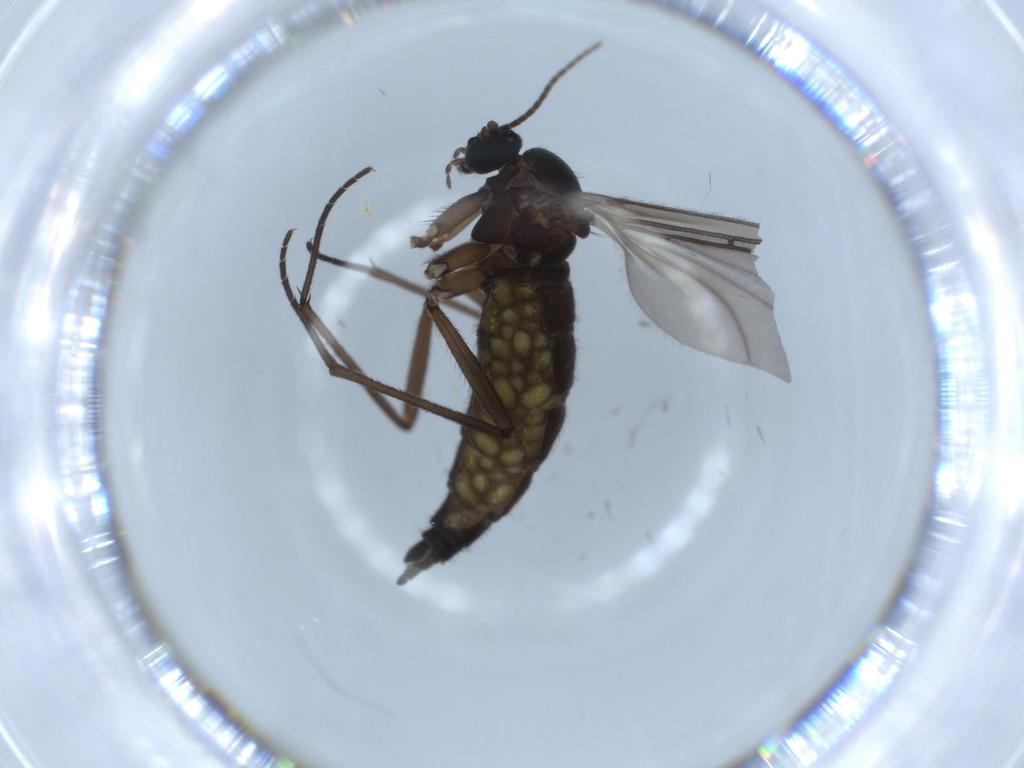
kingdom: Animalia
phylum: Arthropoda
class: Insecta
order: Diptera
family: Sciaridae
